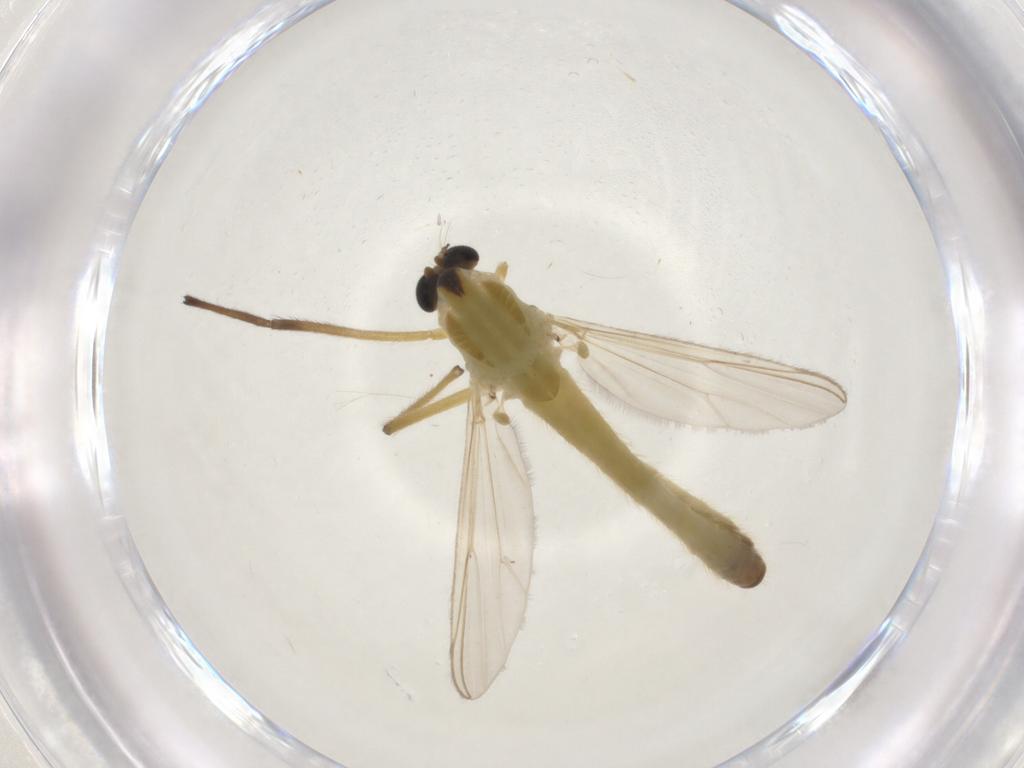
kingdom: Animalia
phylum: Arthropoda
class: Insecta
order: Diptera
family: Chironomidae
